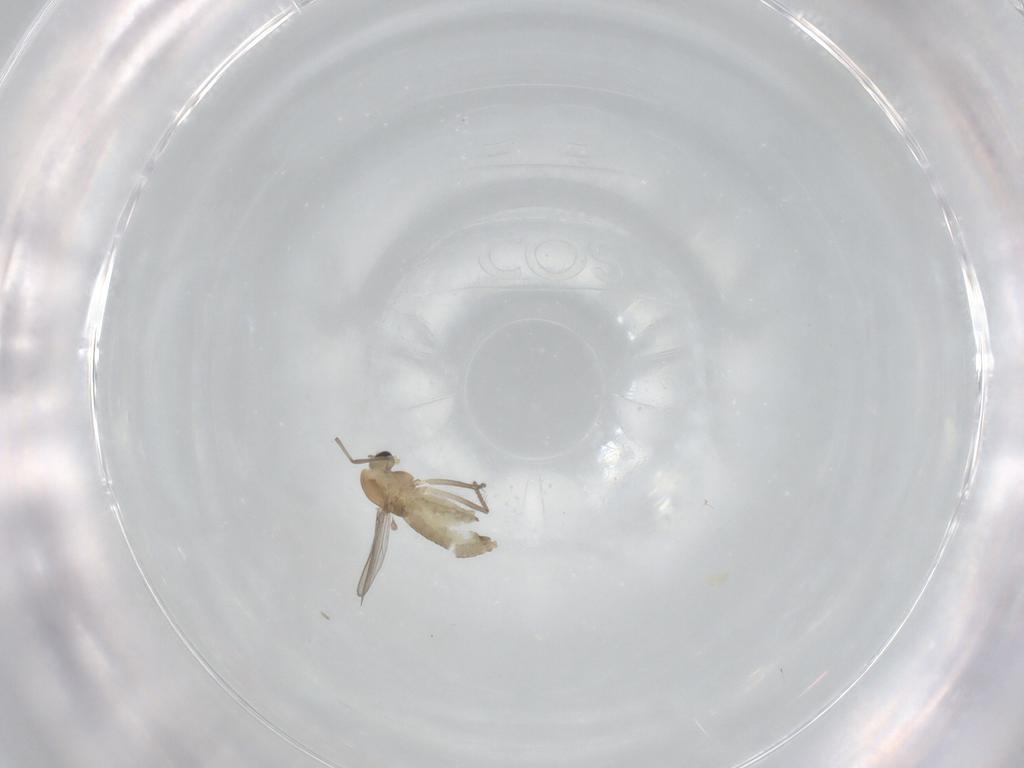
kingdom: Animalia
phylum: Arthropoda
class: Insecta
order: Diptera
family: Chironomidae
